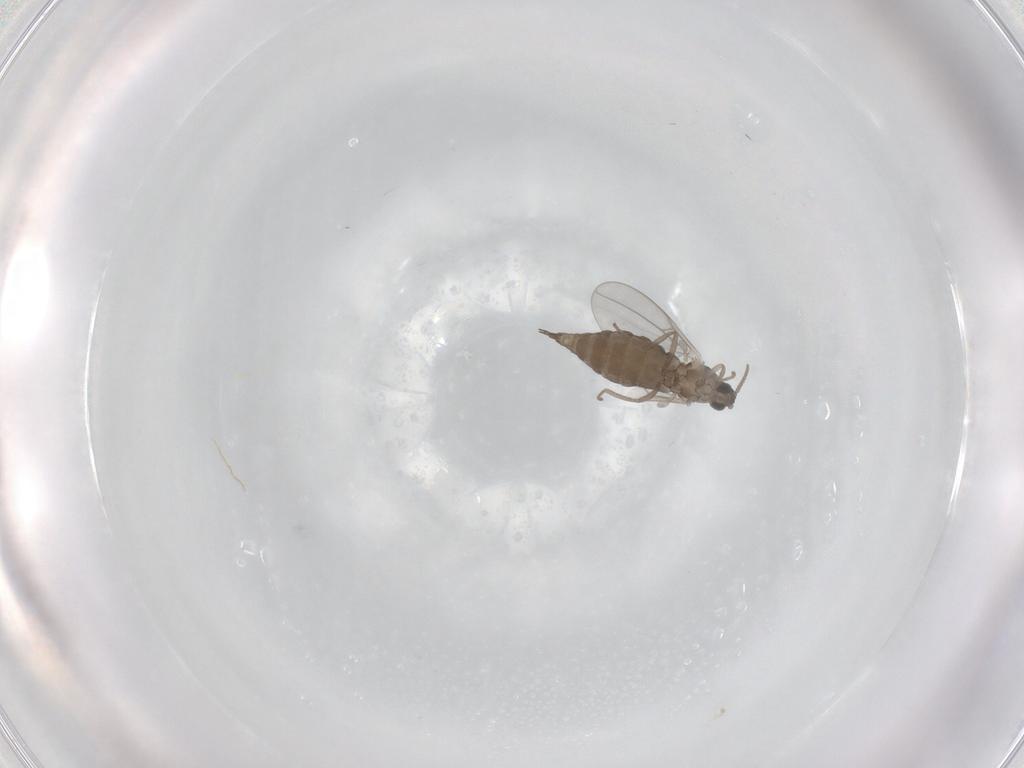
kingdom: Animalia
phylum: Arthropoda
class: Insecta
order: Diptera
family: Cecidomyiidae
